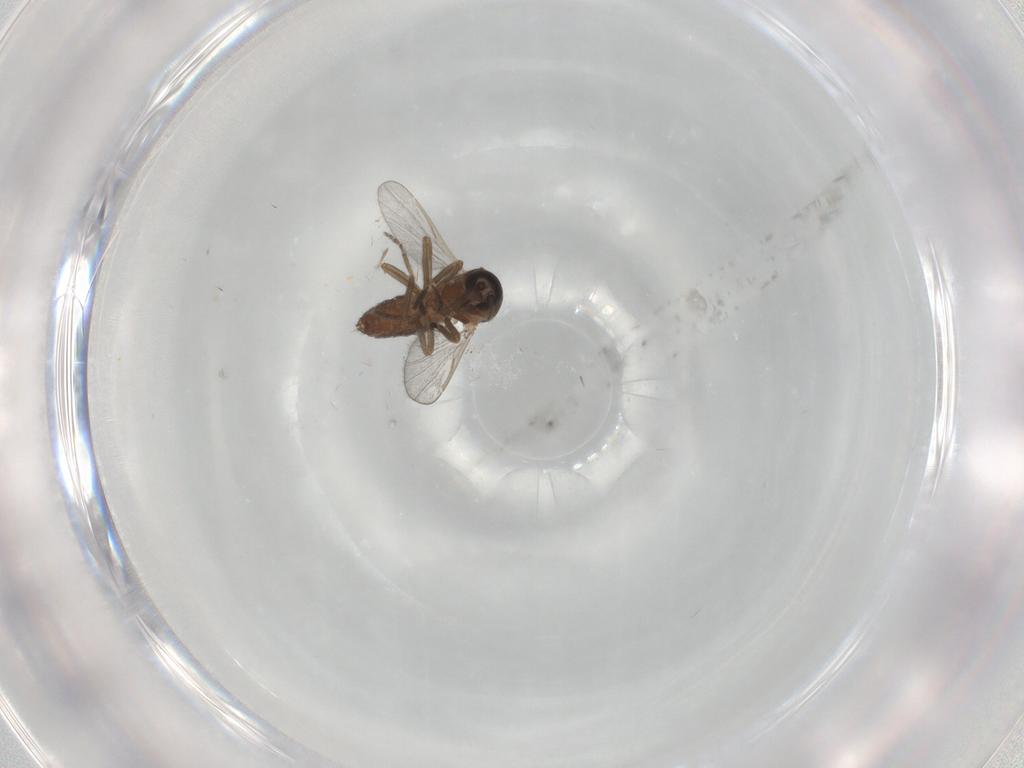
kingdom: Animalia
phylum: Arthropoda
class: Insecta
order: Diptera
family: Ceratopogonidae
